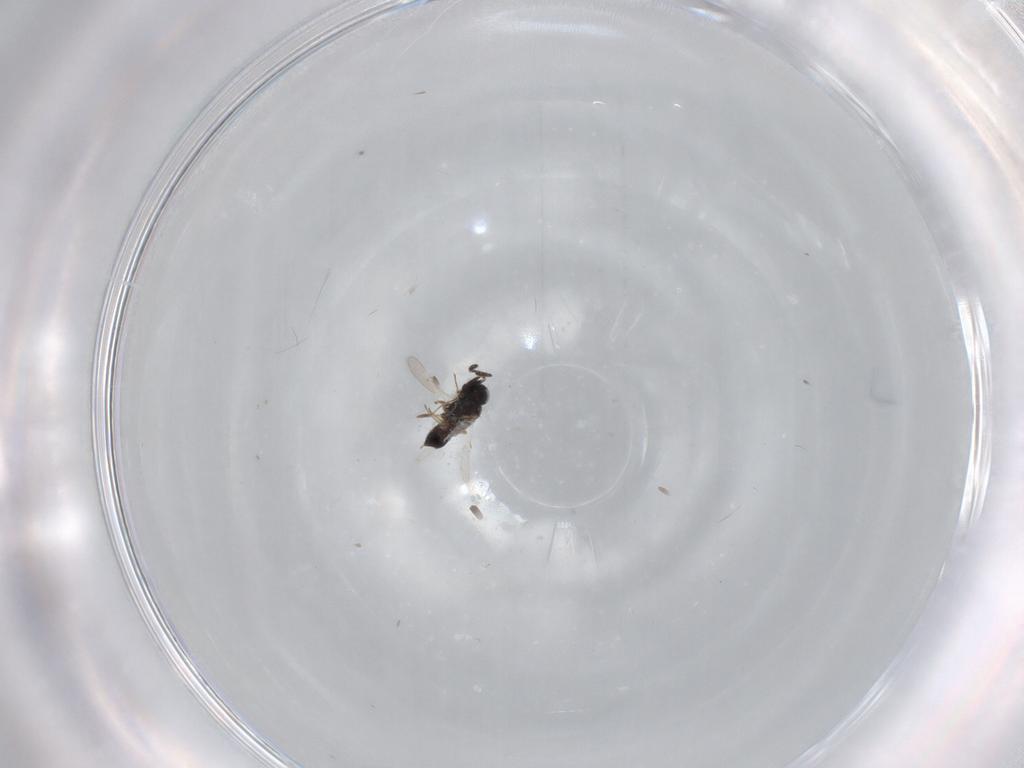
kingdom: Animalia
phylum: Arthropoda
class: Insecta
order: Hymenoptera
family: Scelionidae
